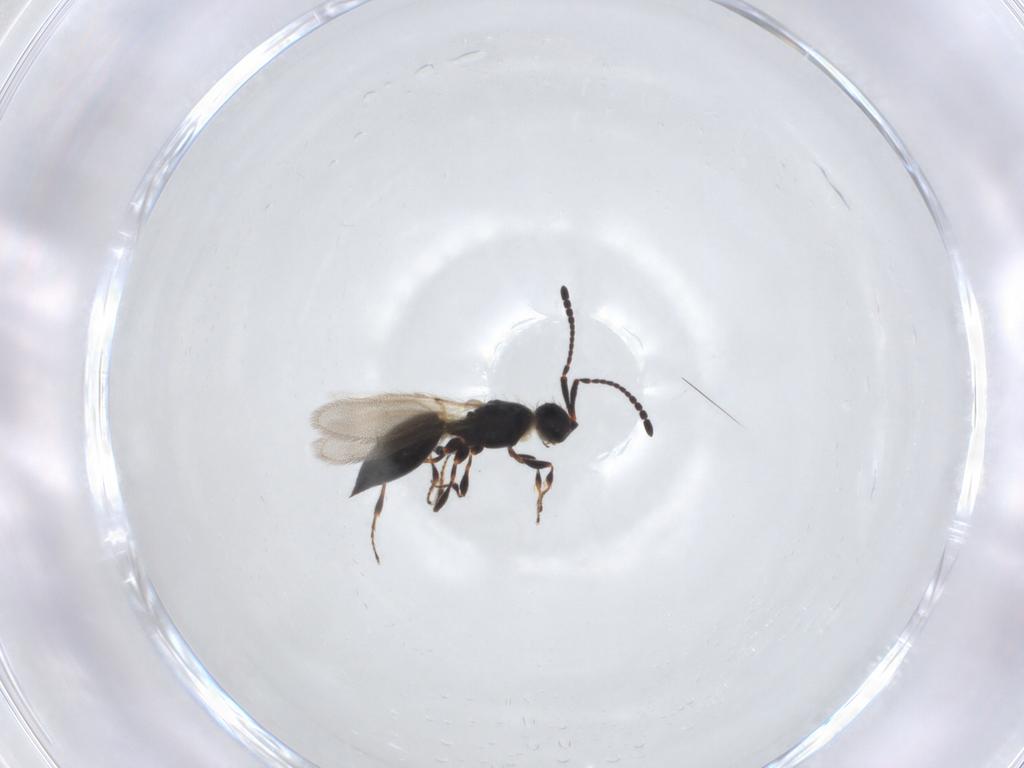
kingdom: Animalia
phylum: Arthropoda
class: Insecta
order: Hymenoptera
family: Diapriidae
